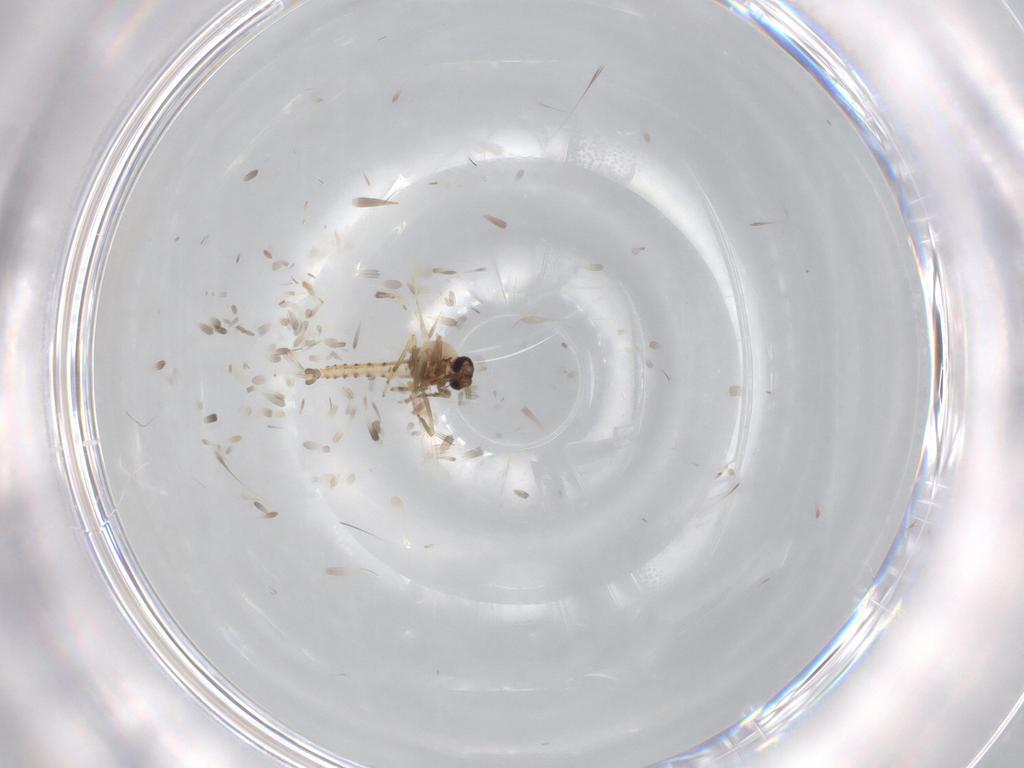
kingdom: Animalia
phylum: Arthropoda
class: Insecta
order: Diptera
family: Ceratopogonidae
